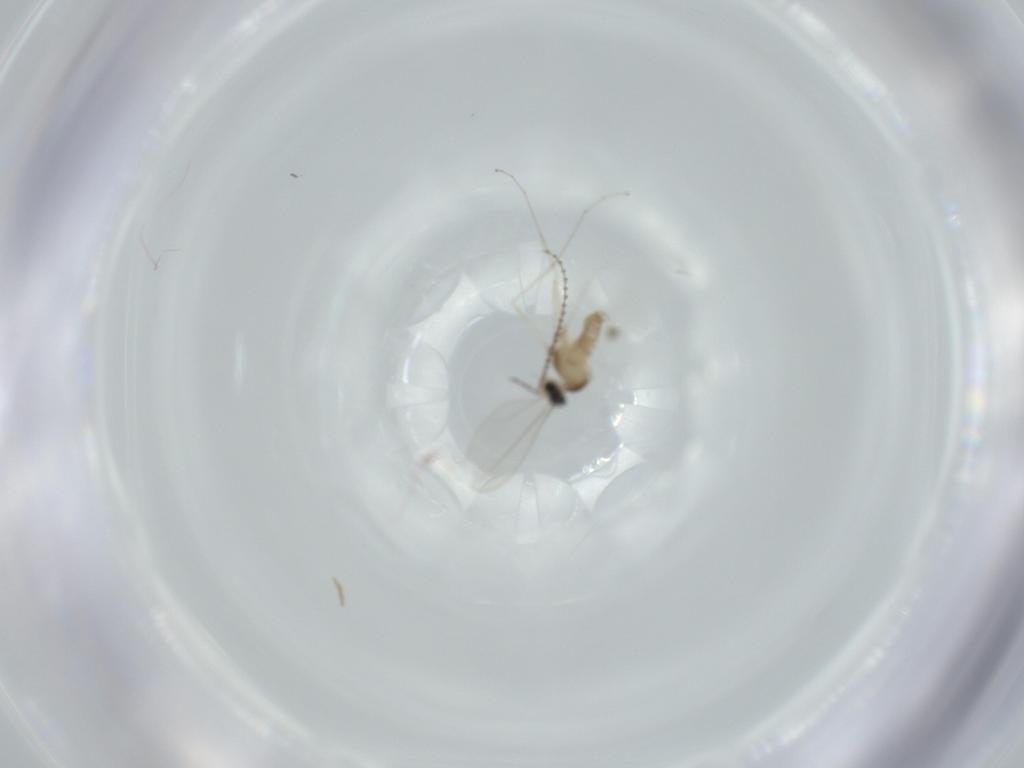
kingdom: Animalia
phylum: Arthropoda
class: Insecta
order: Diptera
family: Cecidomyiidae
